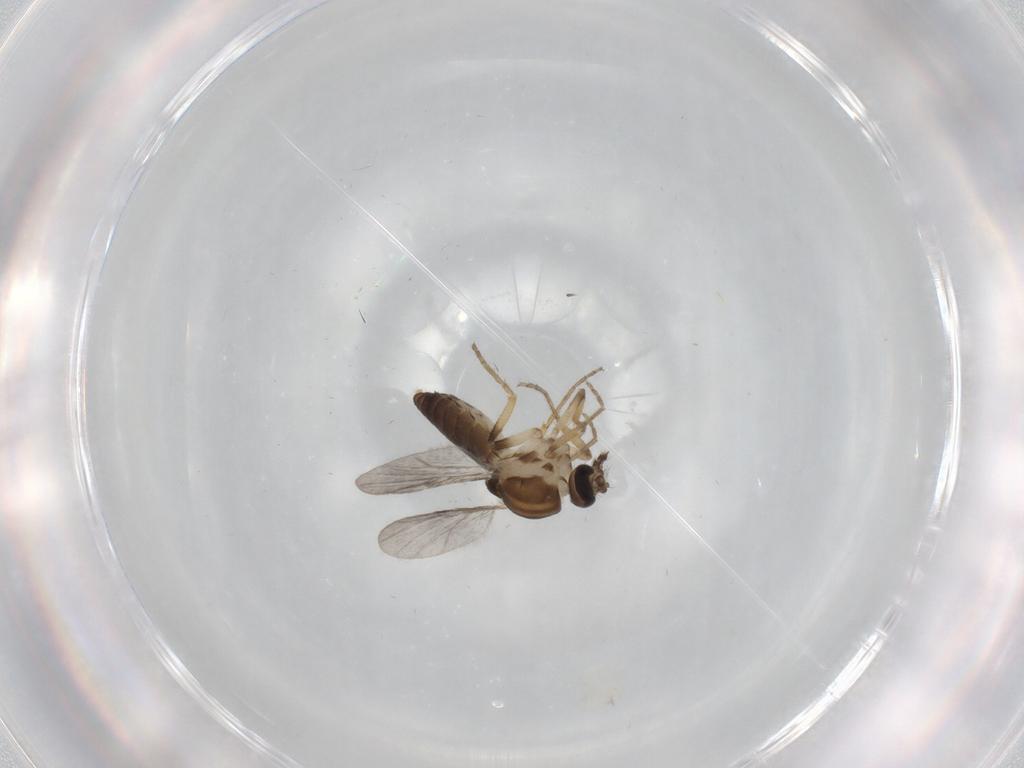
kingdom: Animalia
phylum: Arthropoda
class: Insecta
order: Diptera
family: Ceratopogonidae
